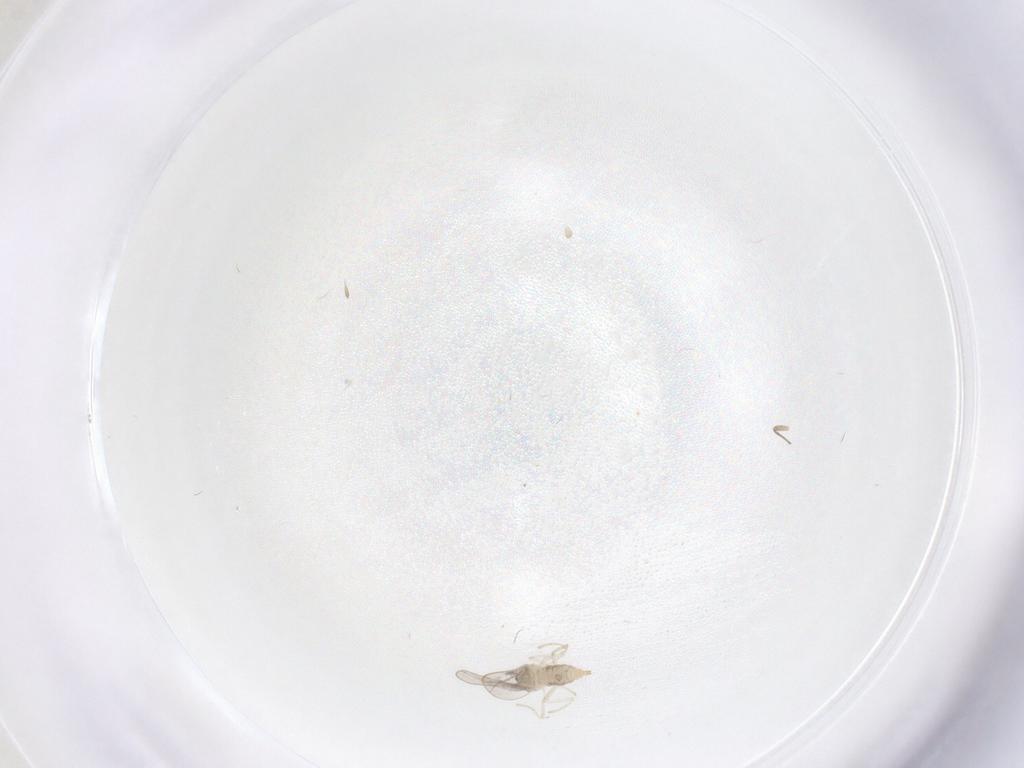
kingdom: Animalia
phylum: Arthropoda
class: Insecta
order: Diptera
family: Cecidomyiidae
